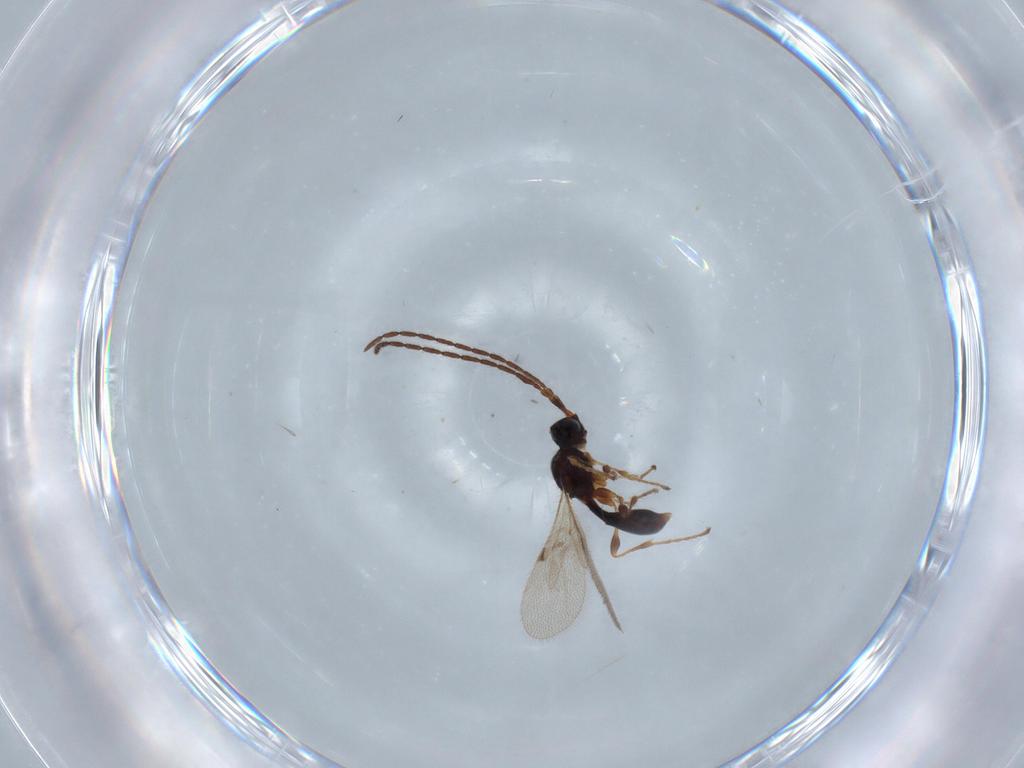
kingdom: Animalia
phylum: Arthropoda
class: Insecta
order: Hymenoptera
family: Diapriidae
